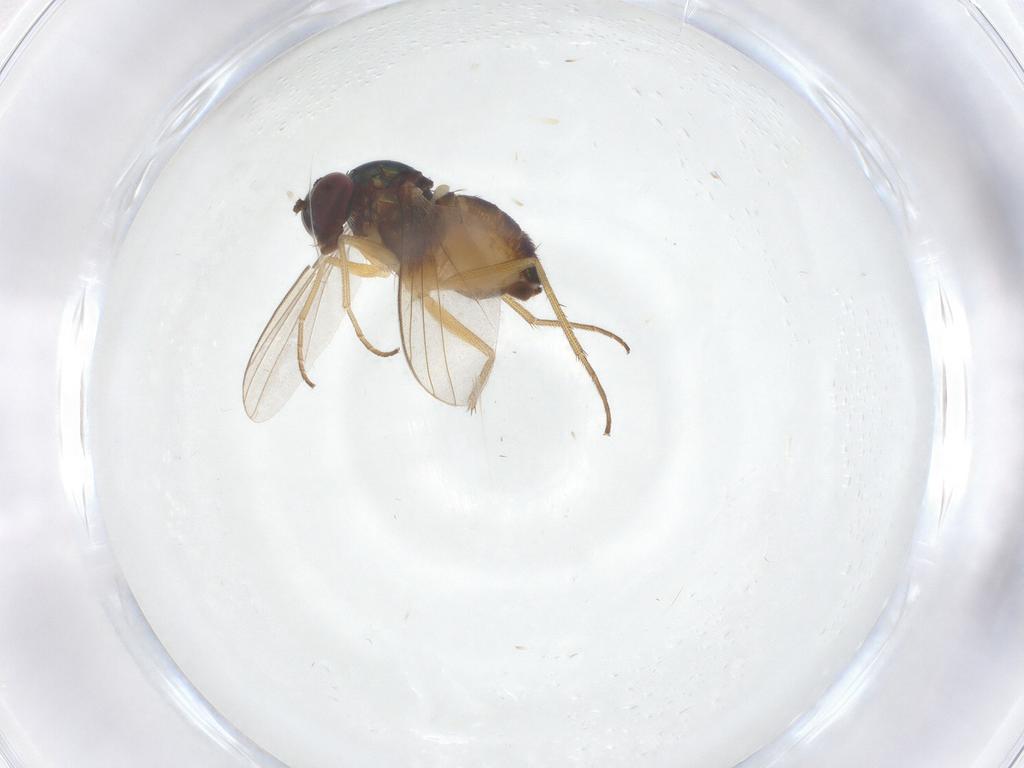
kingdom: Animalia
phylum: Arthropoda
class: Insecta
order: Diptera
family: Dolichopodidae
